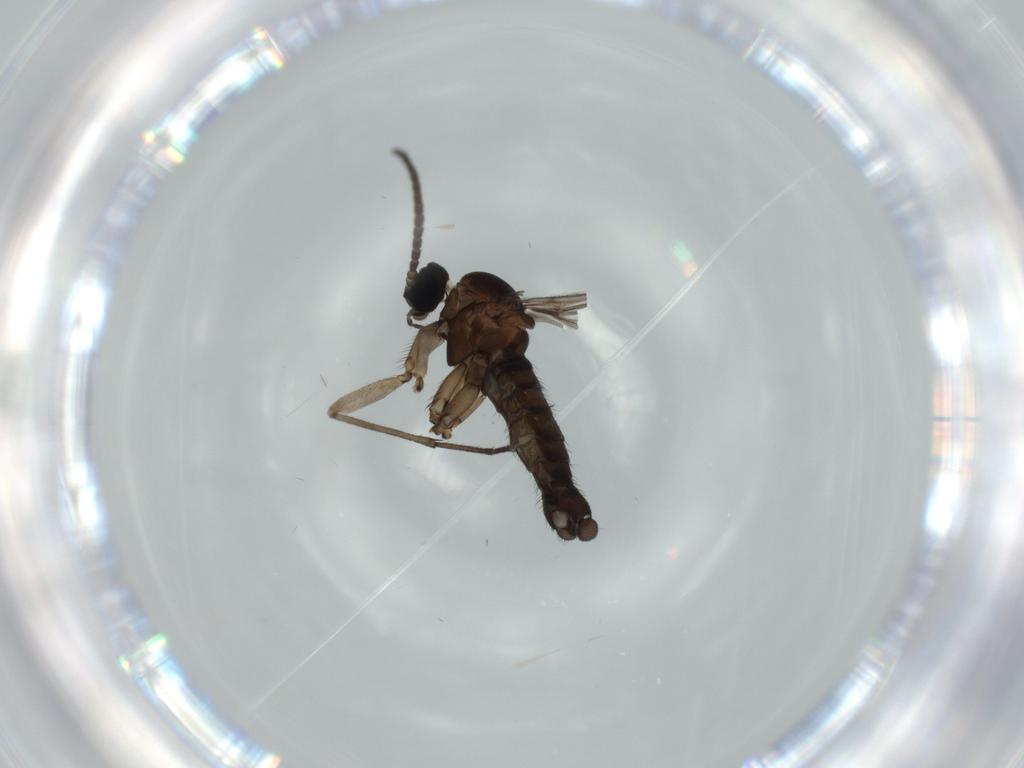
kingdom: Animalia
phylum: Arthropoda
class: Insecta
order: Diptera
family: Sciaridae
